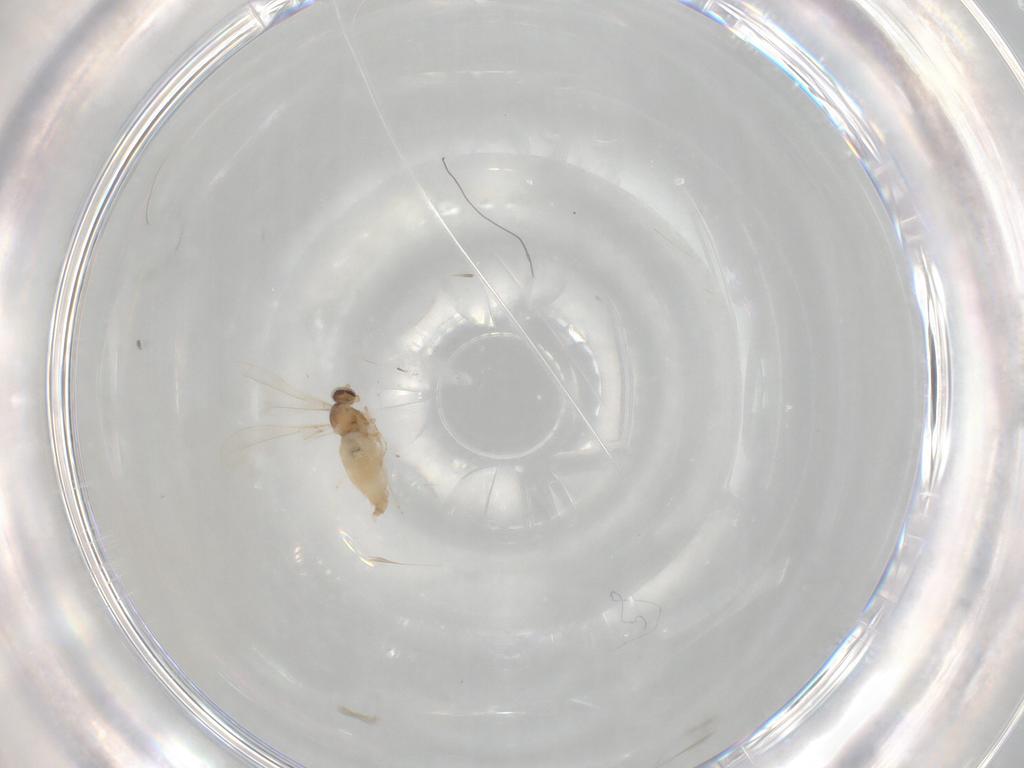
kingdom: Animalia
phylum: Arthropoda
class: Insecta
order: Diptera
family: Cecidomyiidae
